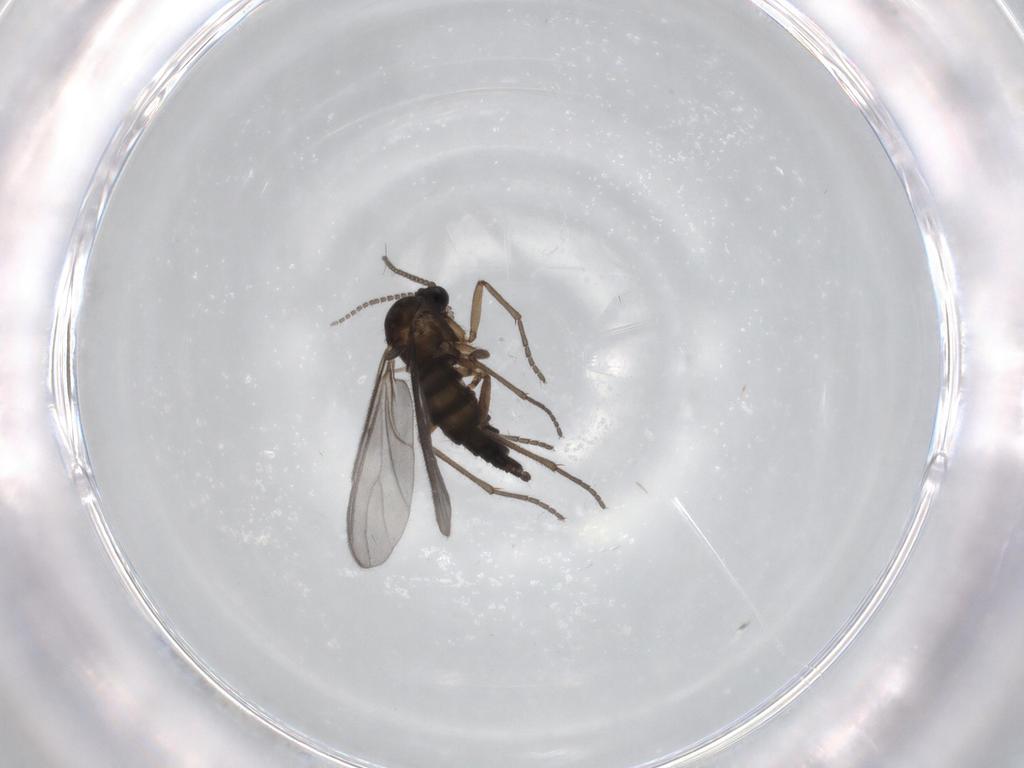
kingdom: Animalia
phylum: Arthropoda
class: Insecta
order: Diptera
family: Sciaridae
